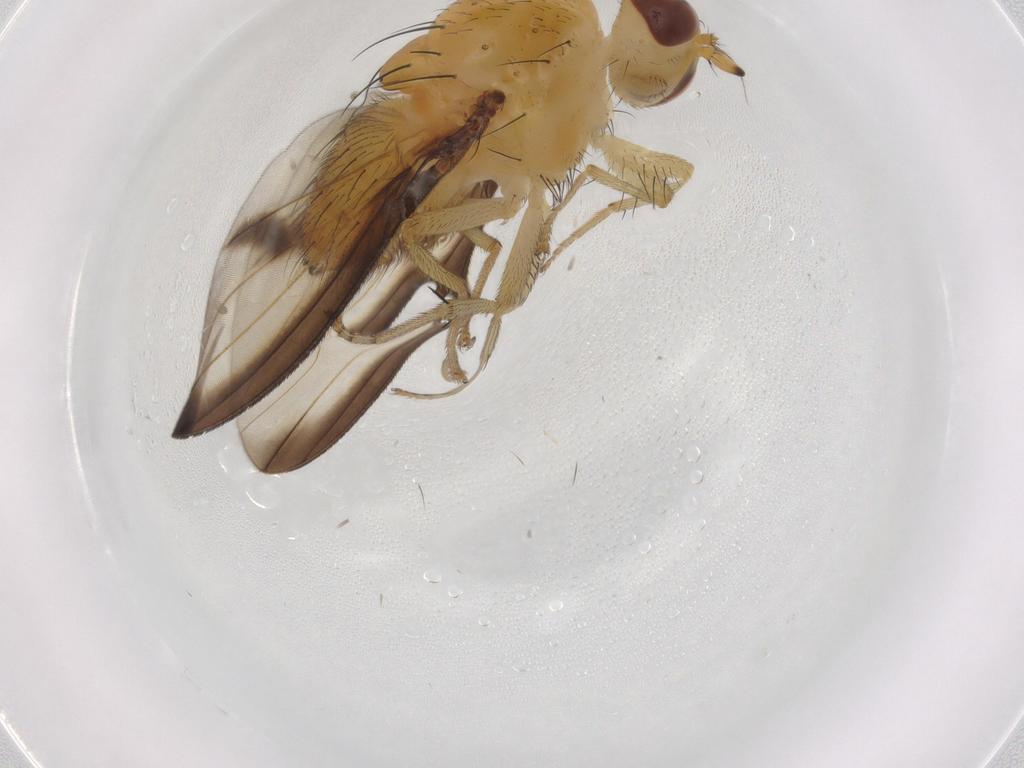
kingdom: Animalia
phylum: Arthropoda
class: Insecta
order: Diptera
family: Lauxaniidae
